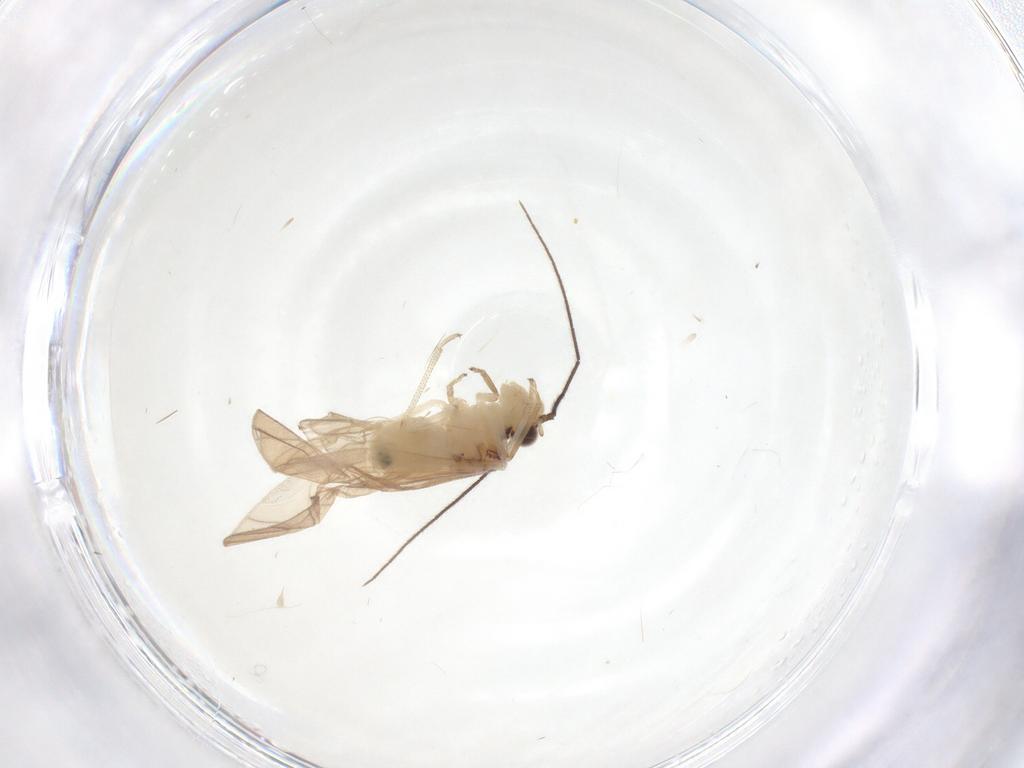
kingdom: Animalia
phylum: Arthropoda
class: Insecta
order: Psocodea
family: Caeciliusidae
